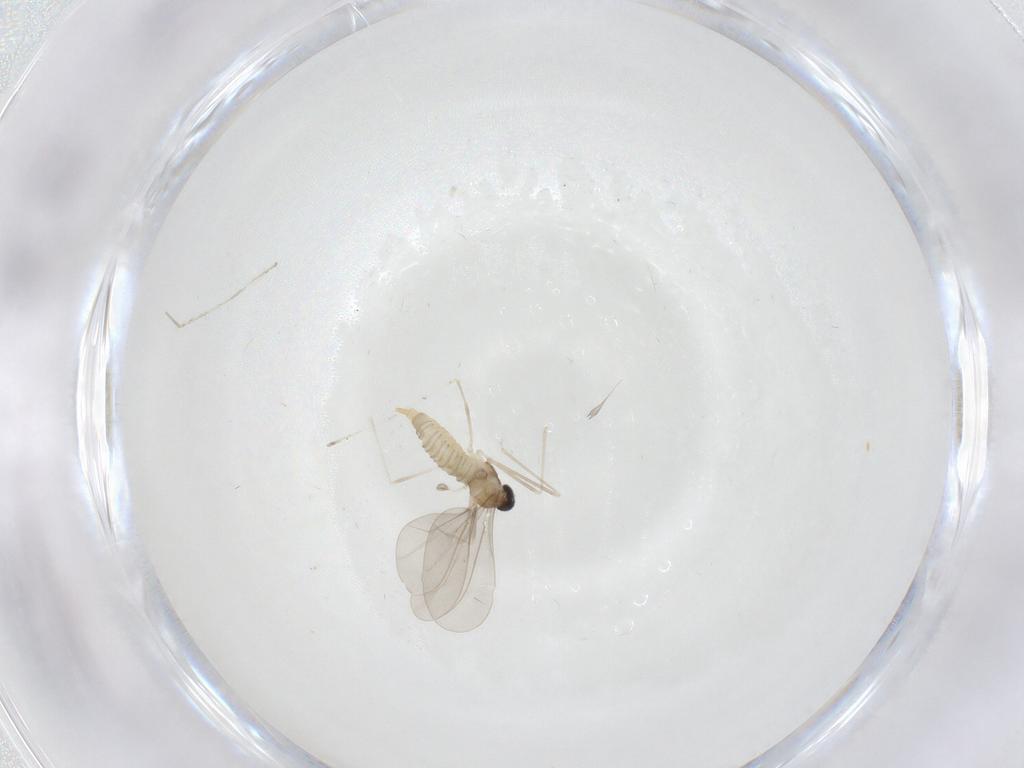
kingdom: Animalia
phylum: Arthropoda
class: Insecta
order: Diptera
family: Cecidomyiidae
